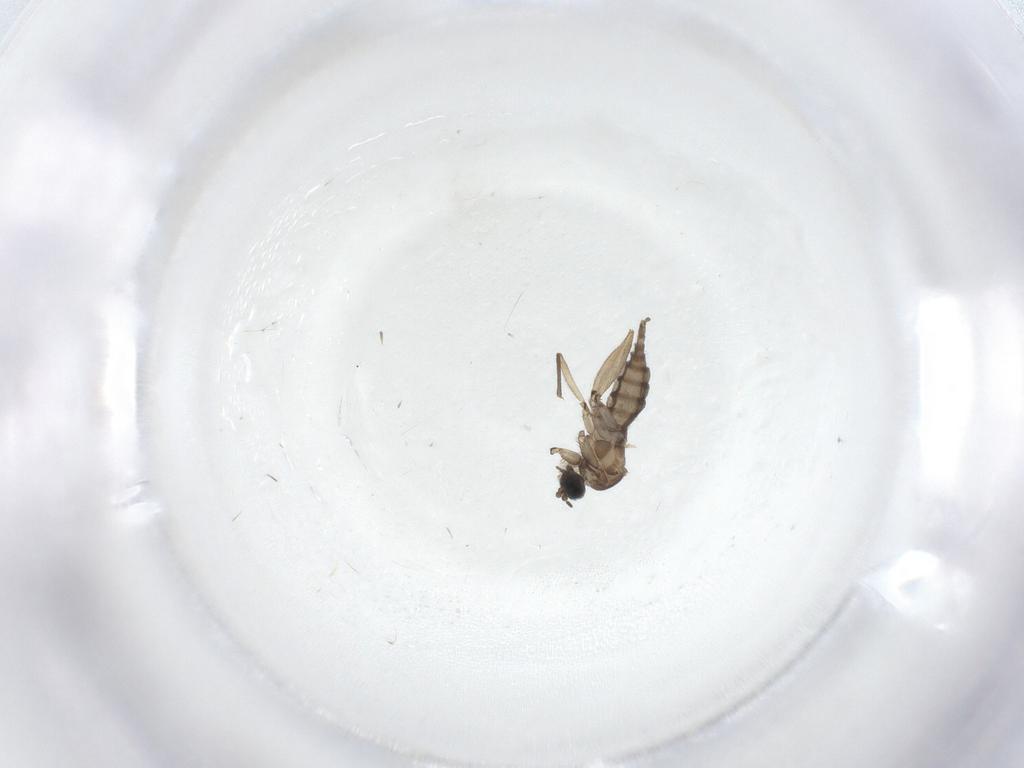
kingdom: Animalia
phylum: Arthropoda
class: Insecta
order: Diptera
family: Sciaridae
